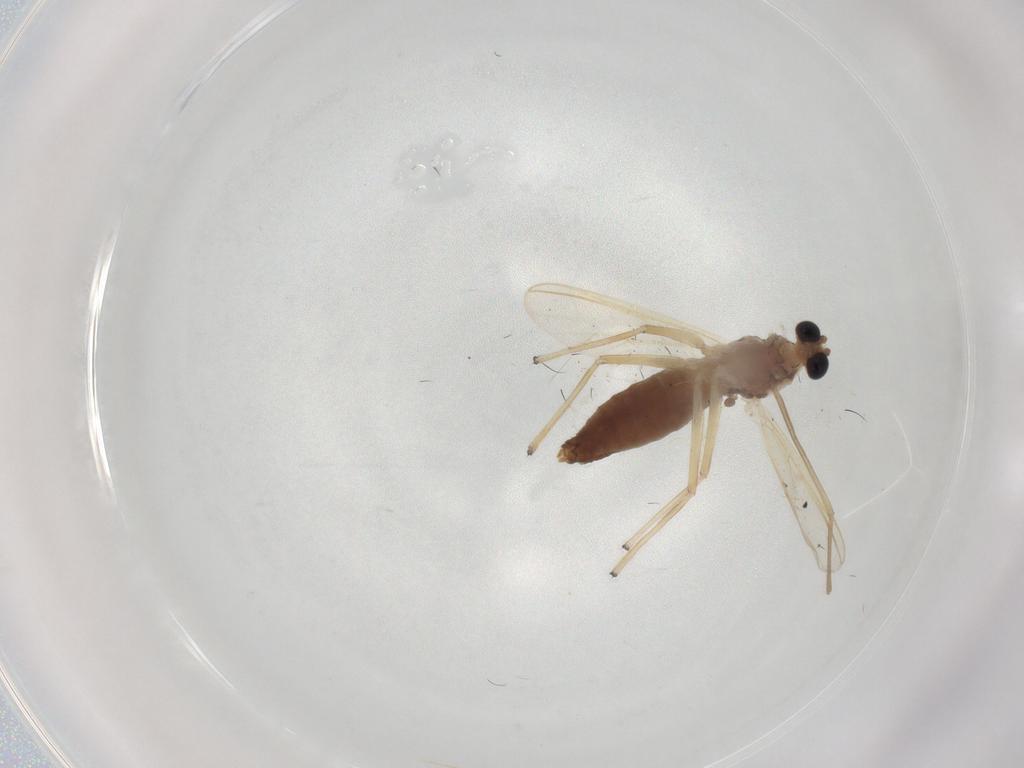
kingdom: Animalia
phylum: Arthropoda
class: Insecta
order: Diptera
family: Chironomidae
